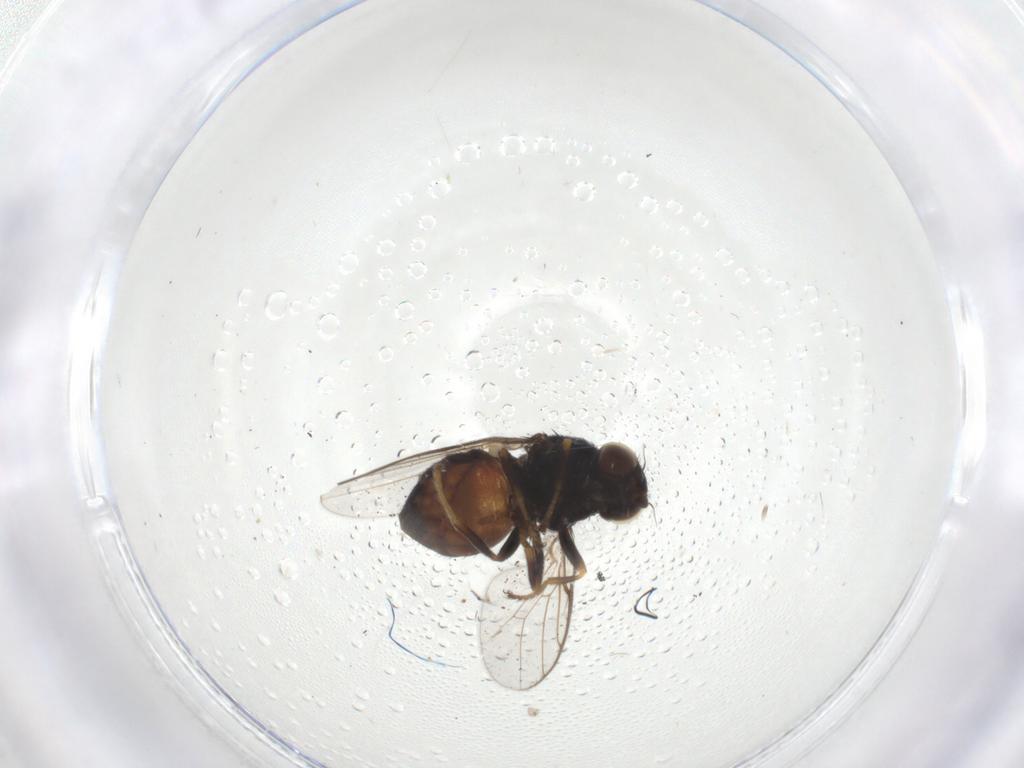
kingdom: Animalia
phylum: Arthropoda
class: Insecta
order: Diptera
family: Chloropidae
